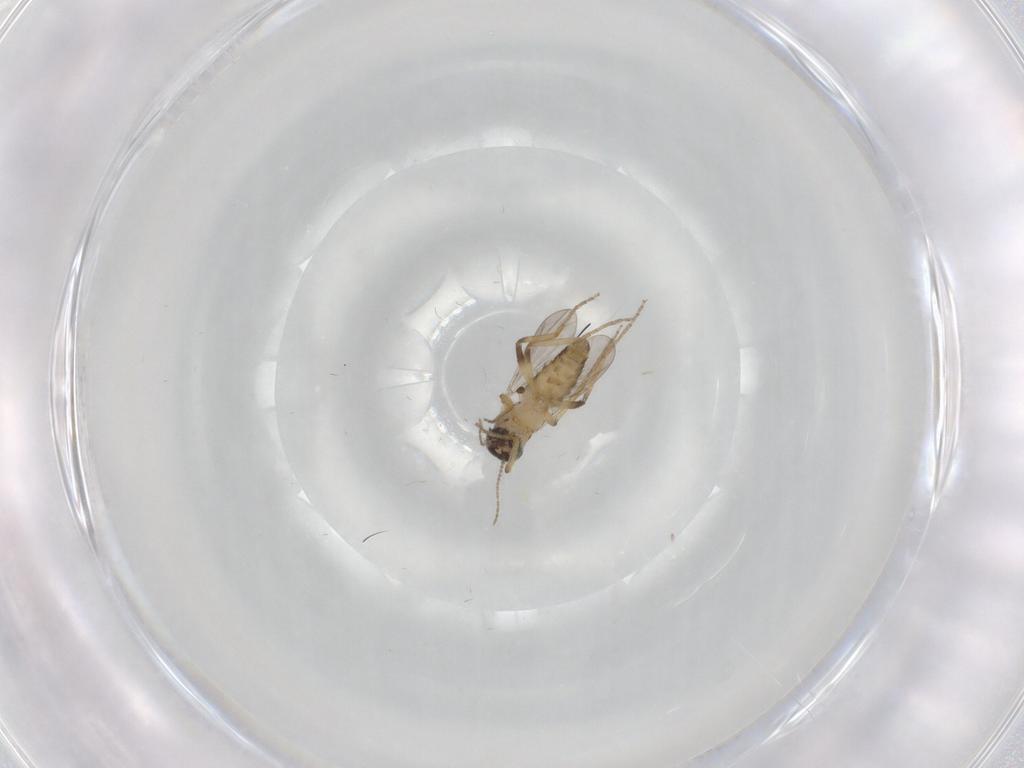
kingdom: Animalia
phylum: Arthropoda
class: Insecta
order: Diptera
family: Ceratopogonidae
